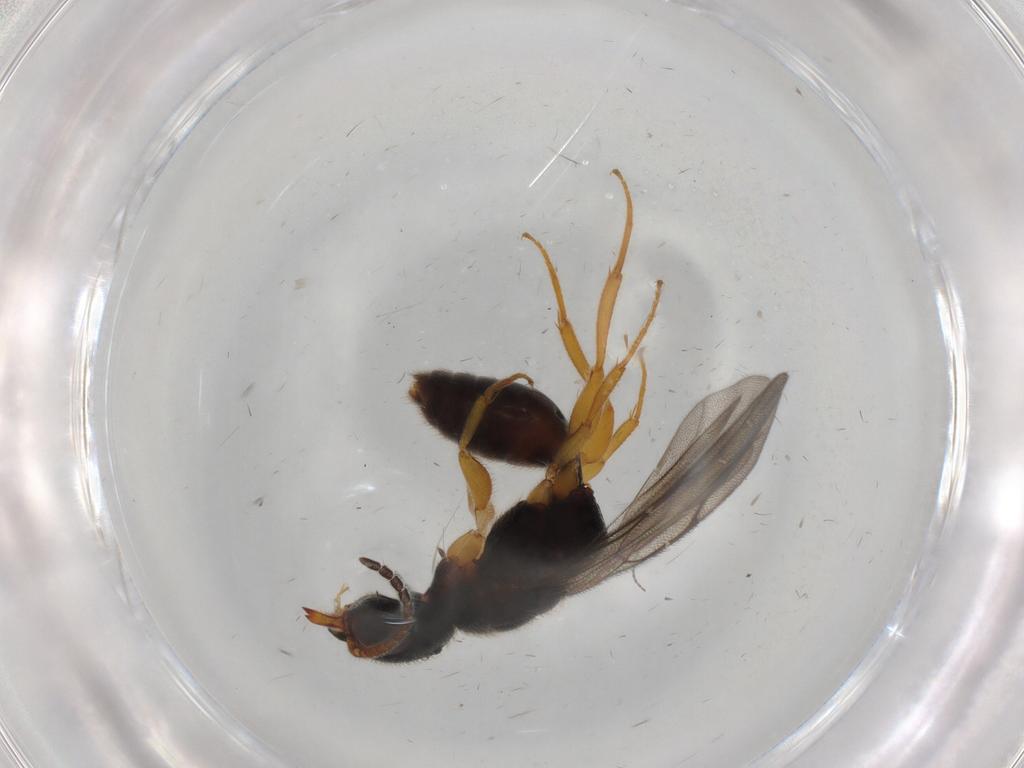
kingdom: Animalia
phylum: Arthropoda
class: Insecta
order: Hymenoptera
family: Bethylidae
